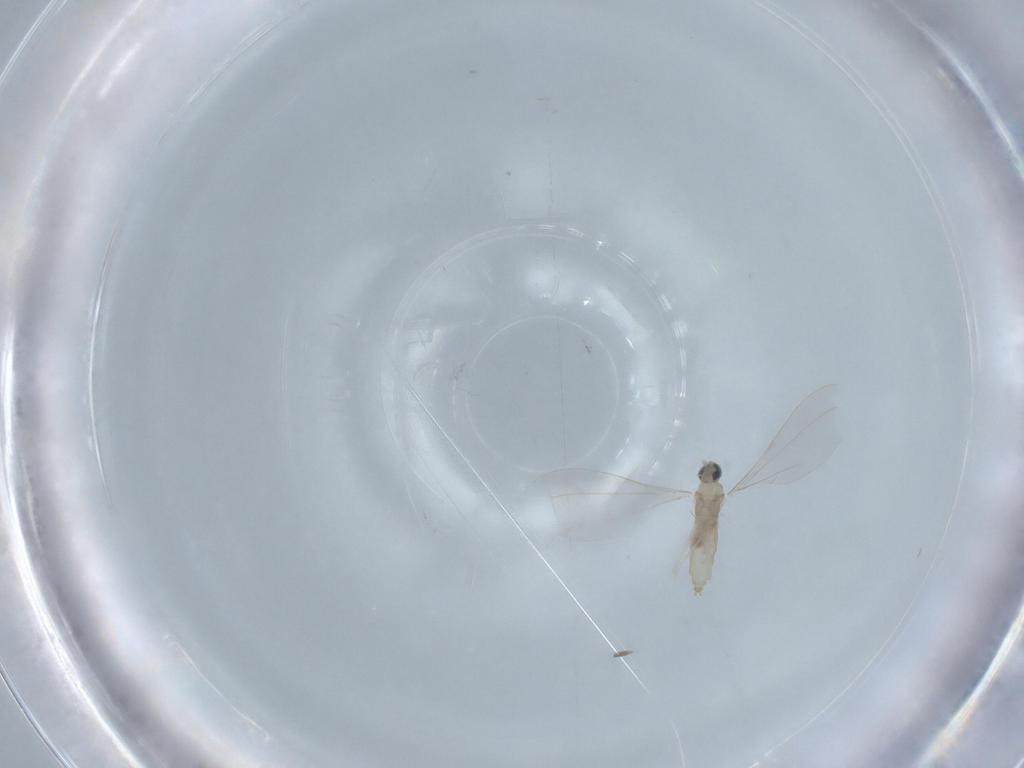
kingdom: Animalia
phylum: Arthropoda
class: Insecta
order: Diptera
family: Cecidomyiidae
